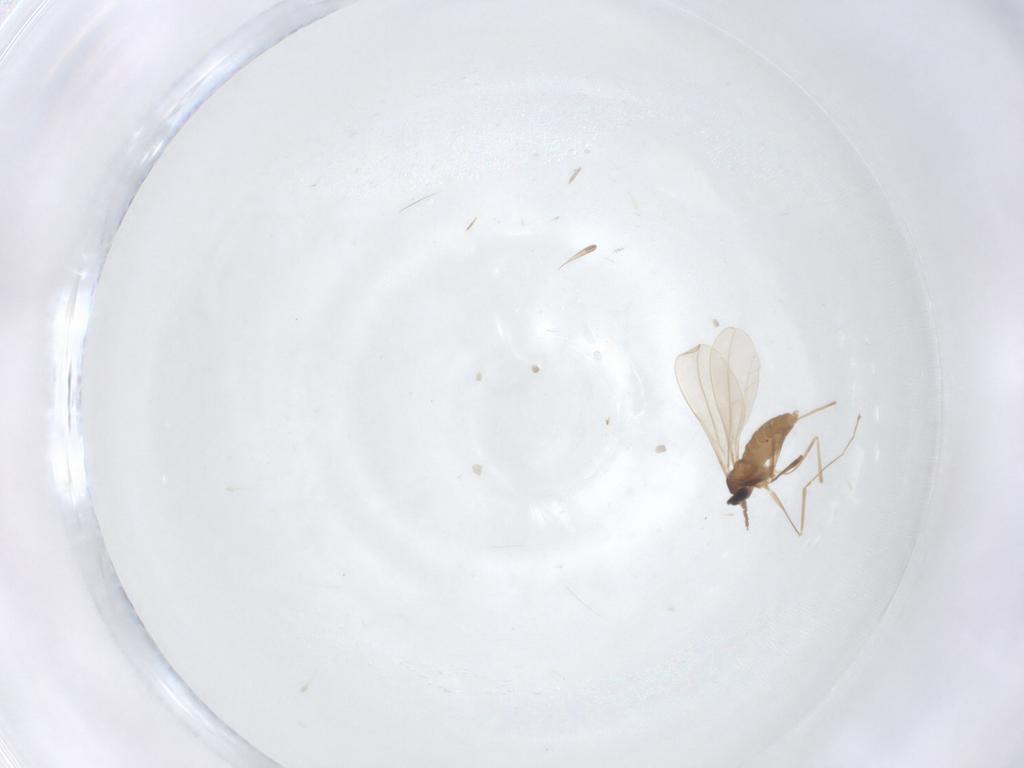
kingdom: Animalia
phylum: Arthropoda
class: Insecta
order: Diptera
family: Cecidomyiidae
